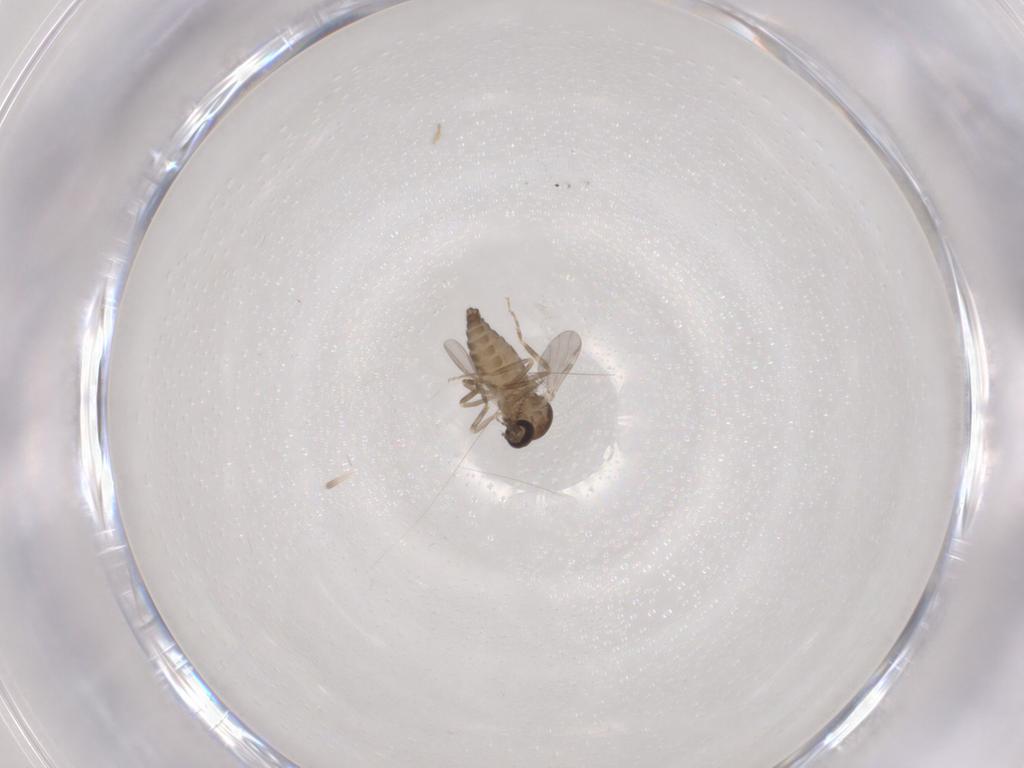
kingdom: Animalia
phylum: Arthropoda
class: Insecta
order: Diptera
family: Ceratopogonidae
